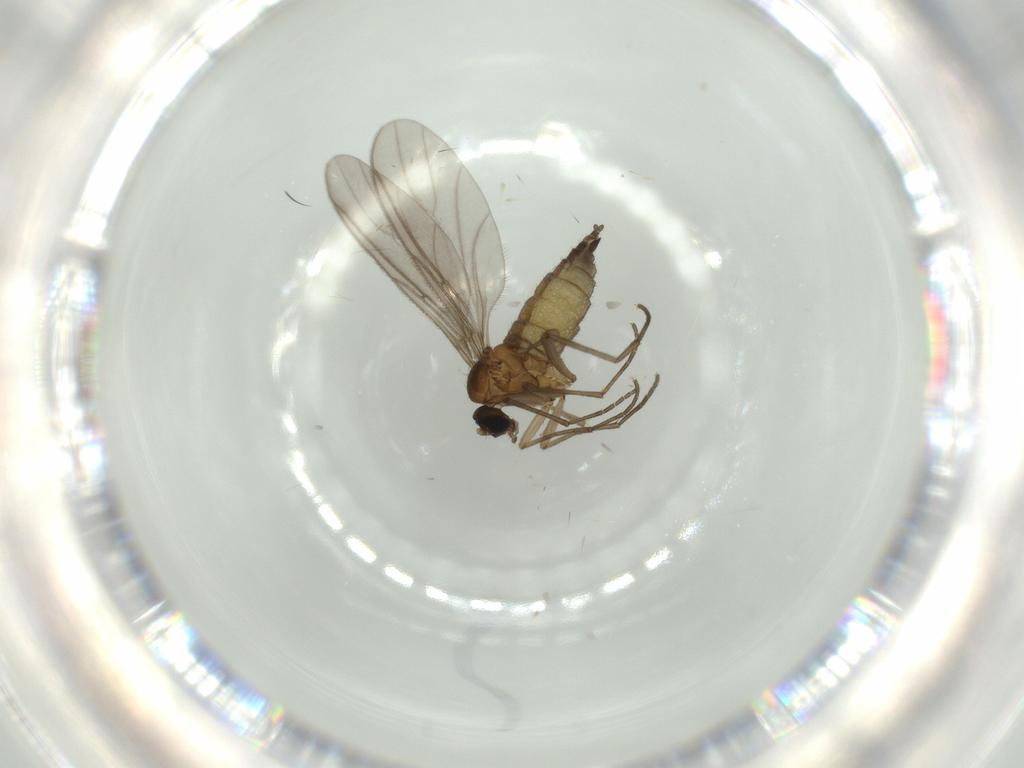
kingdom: Animalia
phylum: Arthropoda
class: Insecta
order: Diptera
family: Sciaridae
